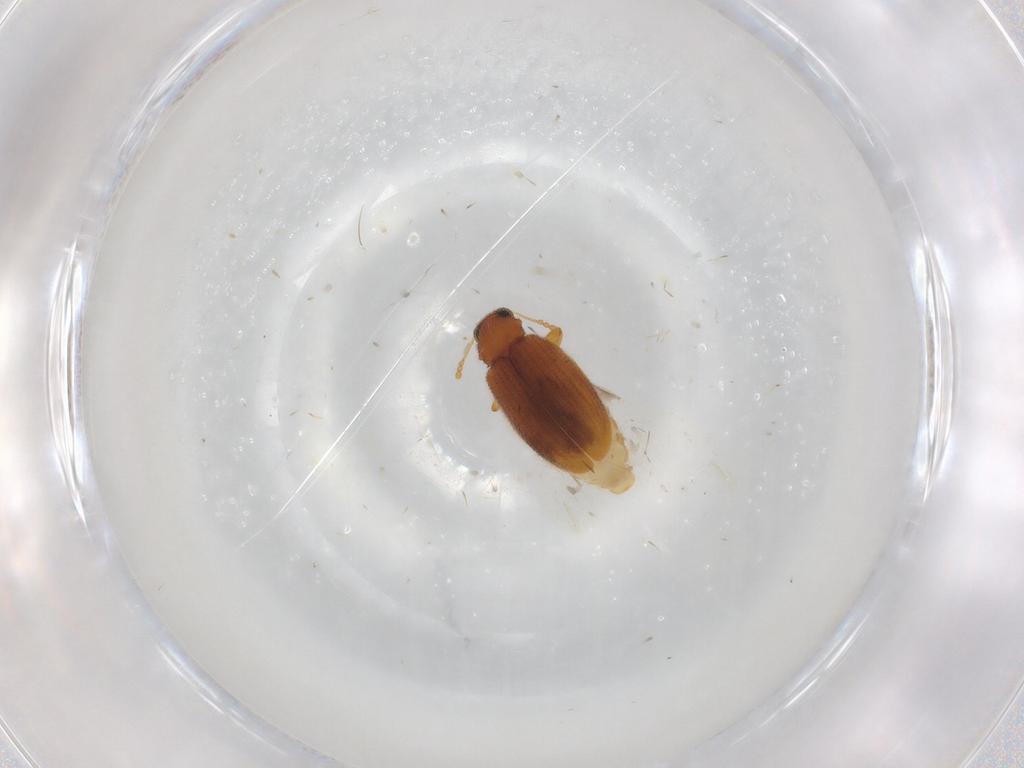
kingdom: Animalia
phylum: Arthropoda
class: Insecta
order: Coleoptera
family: Latridiidae
